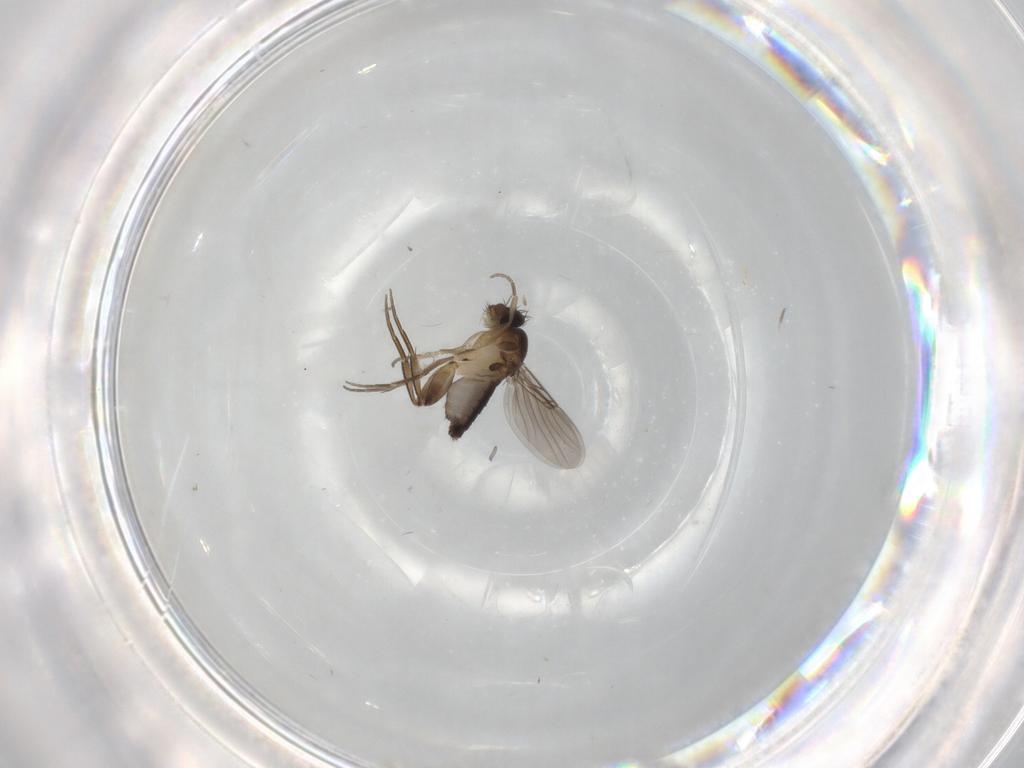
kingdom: Animalia
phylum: Arthropoda
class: Insecta
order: Diptera
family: Phoridae
